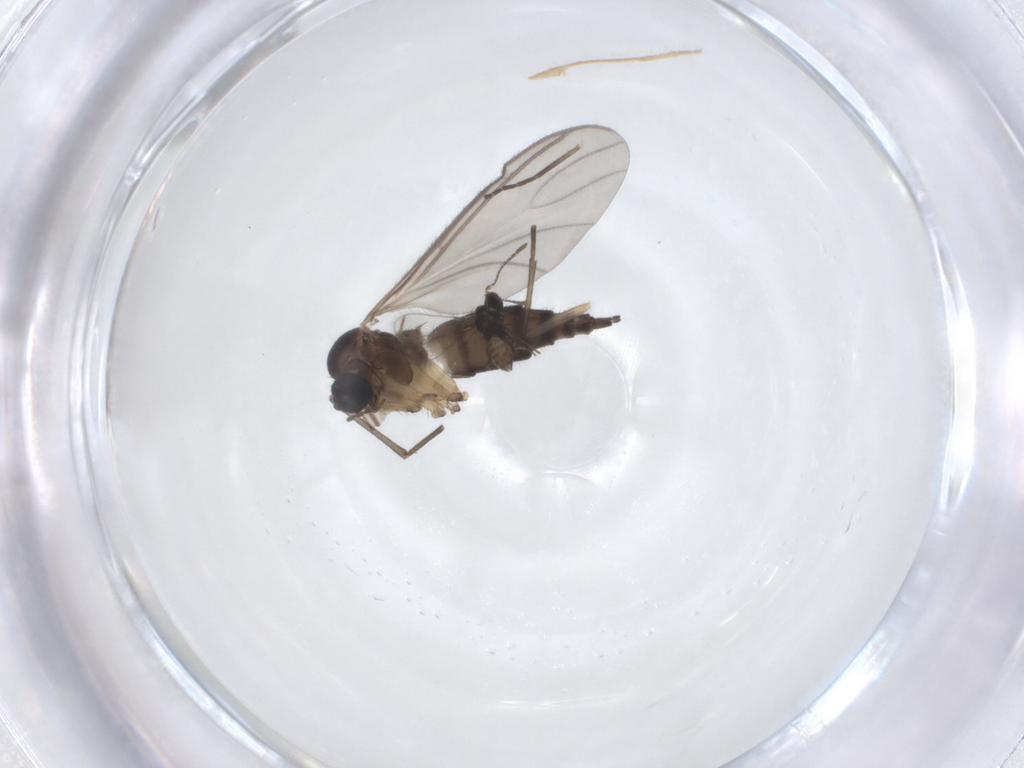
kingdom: Animalia
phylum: Arthropoda
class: Insecta
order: Diptera
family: Sciaridae
